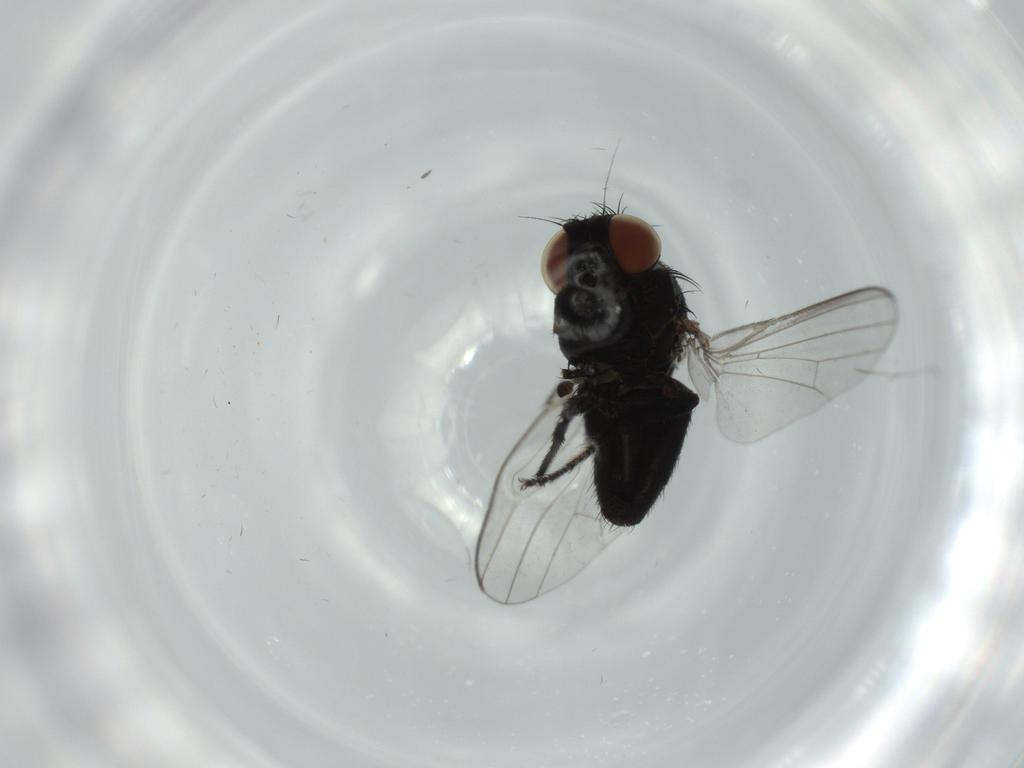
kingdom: Animalia
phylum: Arthropoda
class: Insecta
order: Diptera
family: Milichiidae
